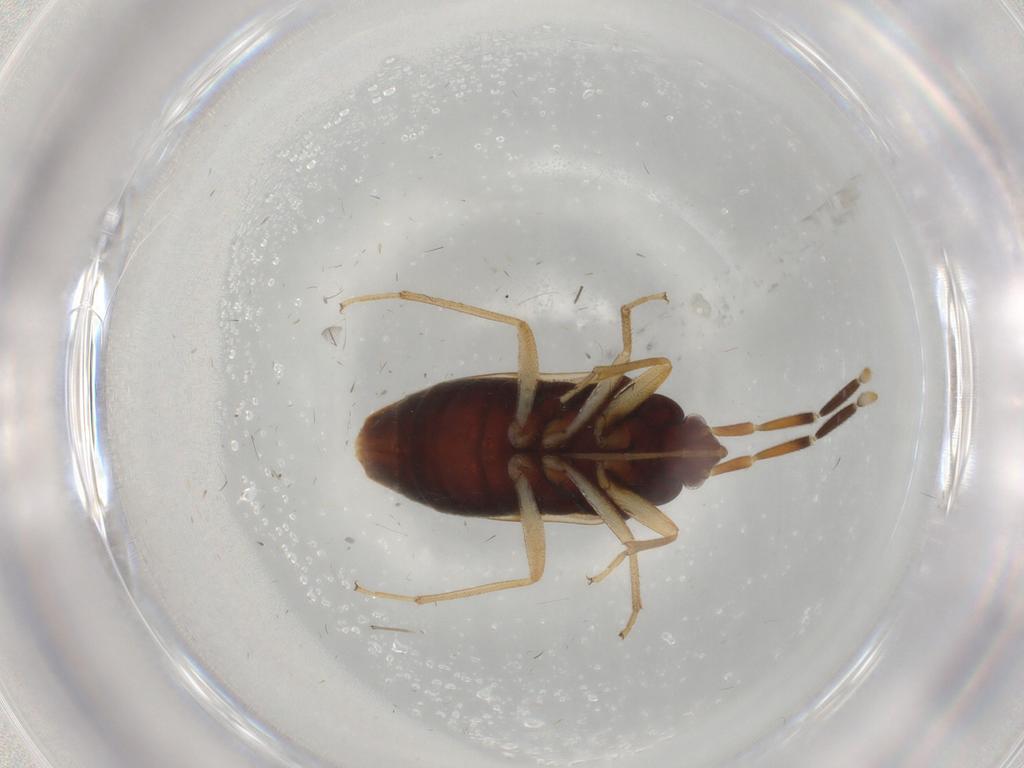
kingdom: Animalia
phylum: Arthropoda
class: Insecta
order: Hemiptera
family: Rhyparochromidae
